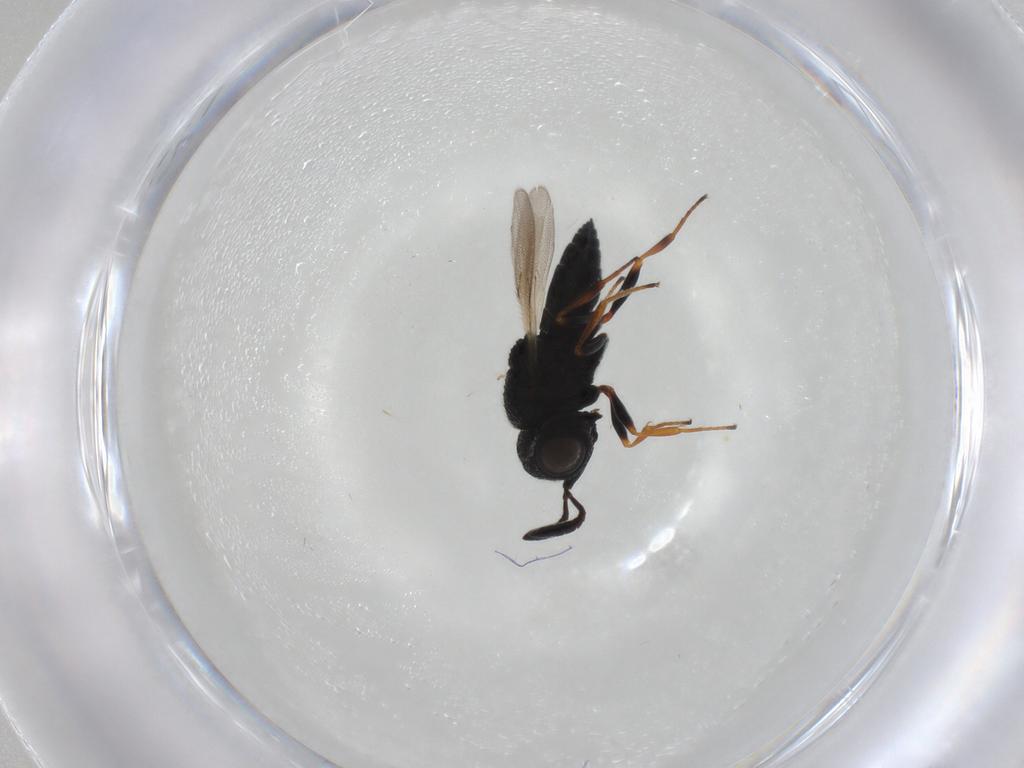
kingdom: Animalia
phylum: Arthropoda
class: Insecta
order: Hymenoptera
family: Scelionidae
